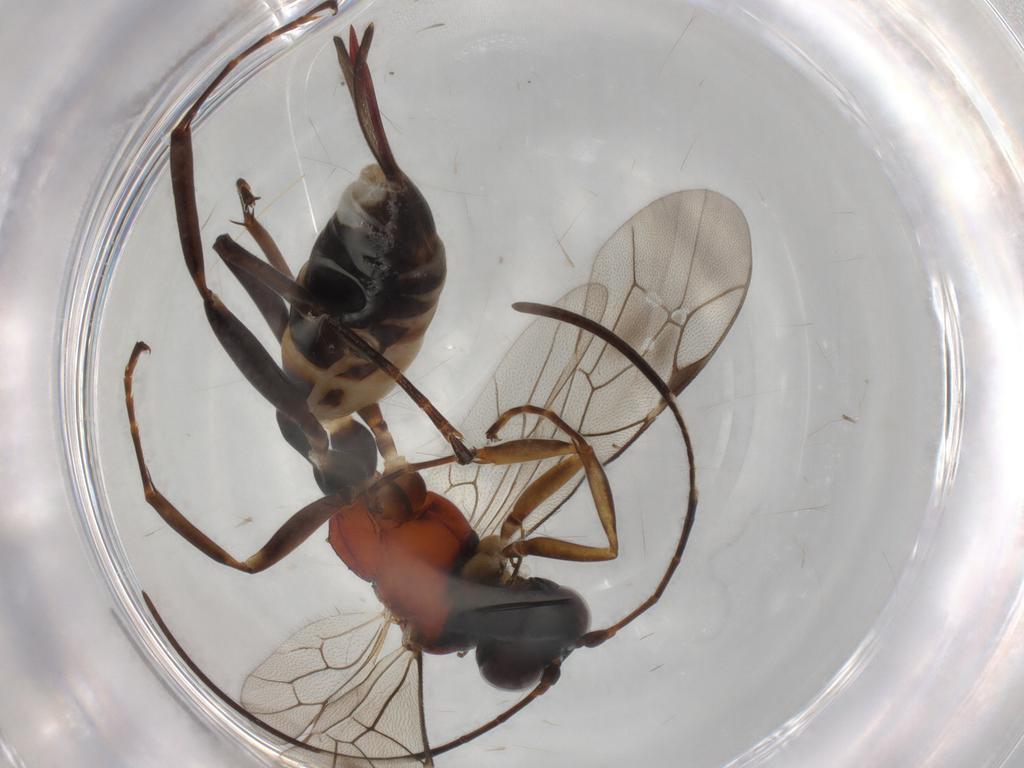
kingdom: Animalia
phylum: Arthropoda
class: Insecta
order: Hymenoptera
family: Ichneumonidae
